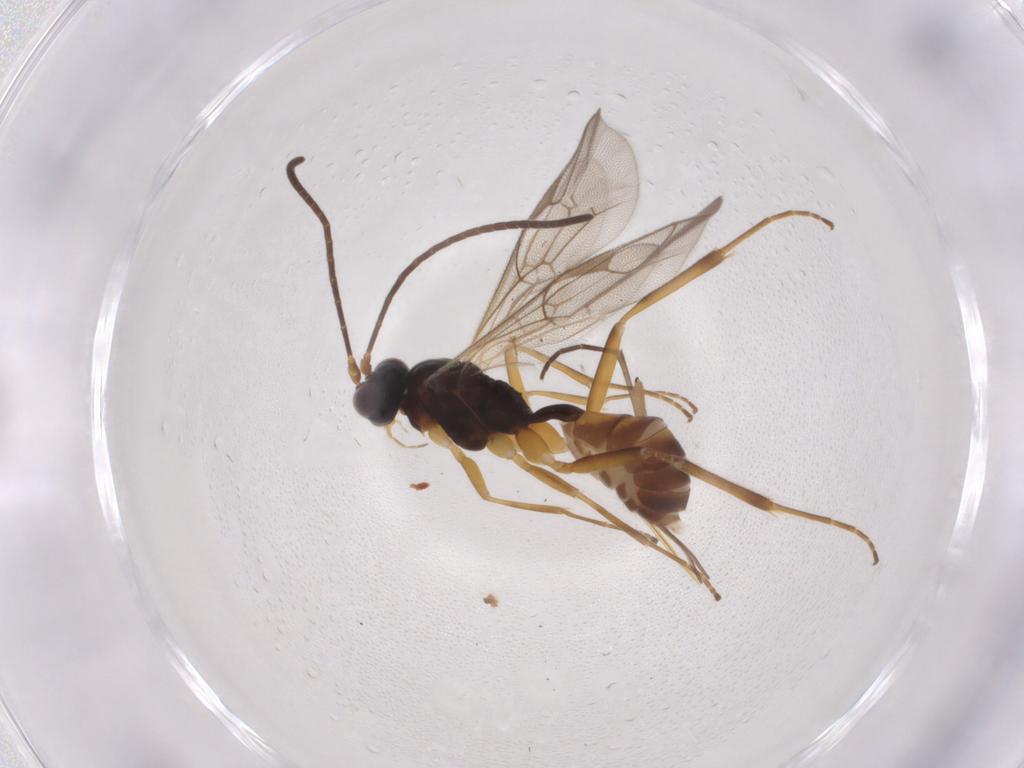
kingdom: Animalia
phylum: Arthropoda
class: Insecta
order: Hymenoptera
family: Ichneumonidae
